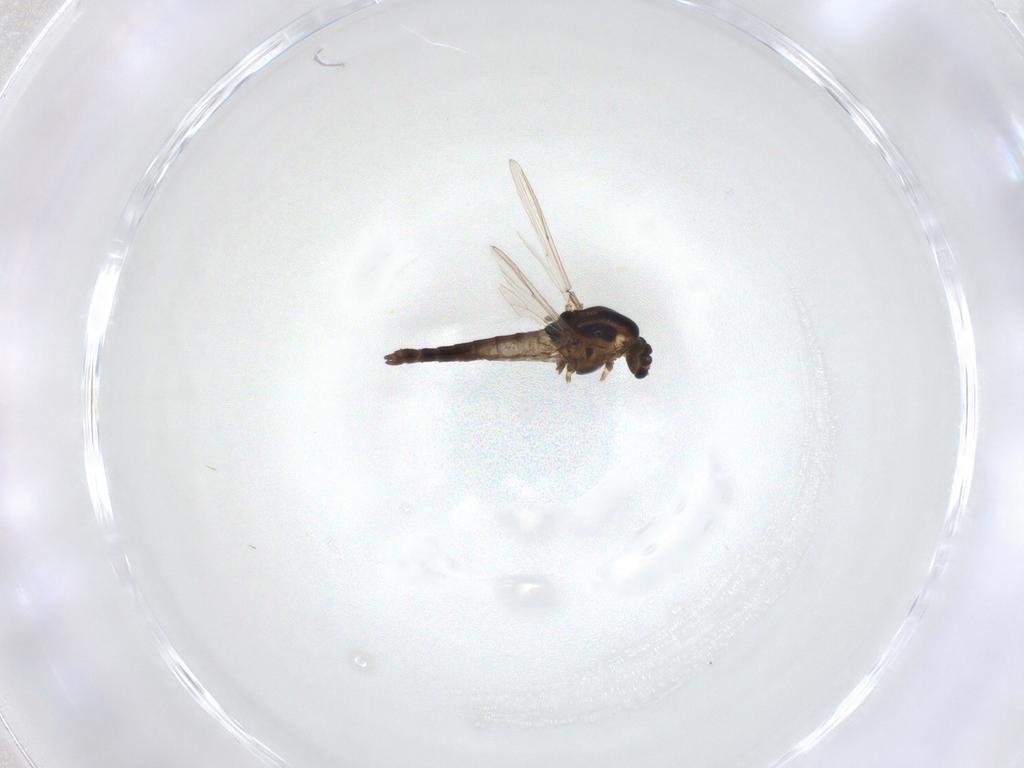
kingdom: Animalia
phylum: Arthropoda
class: Insecta
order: Diptera
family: Chironomidae
